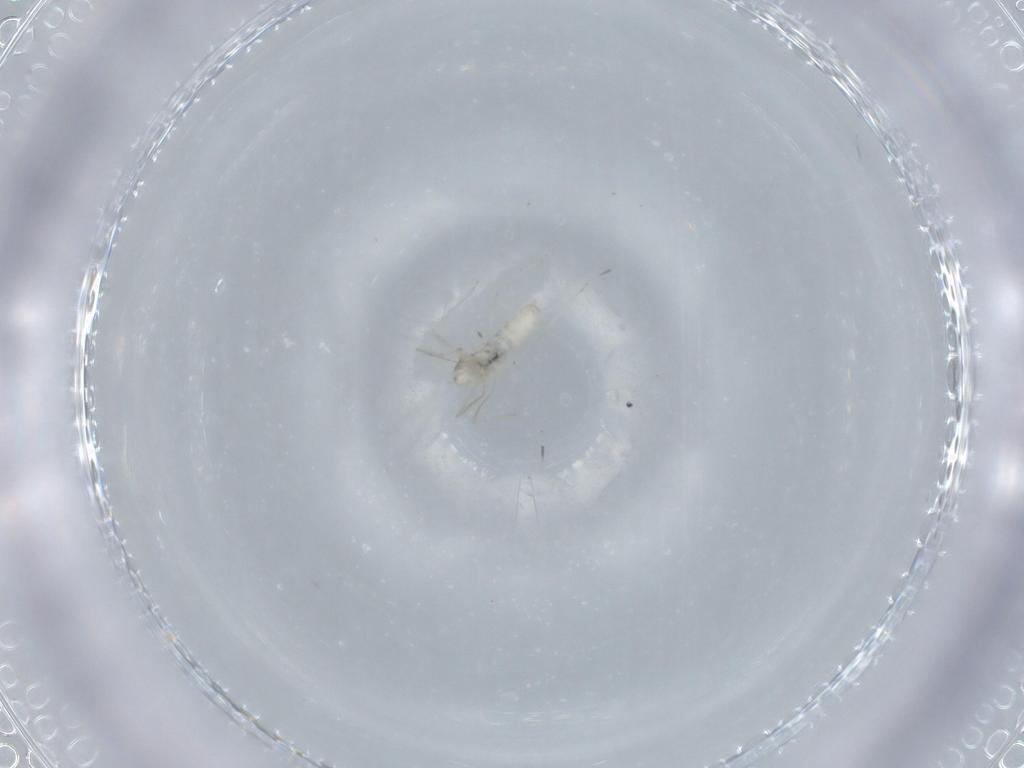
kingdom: Animalia
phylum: Arthropoda
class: Insecta
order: Diptera
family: Cecidomyiidae
